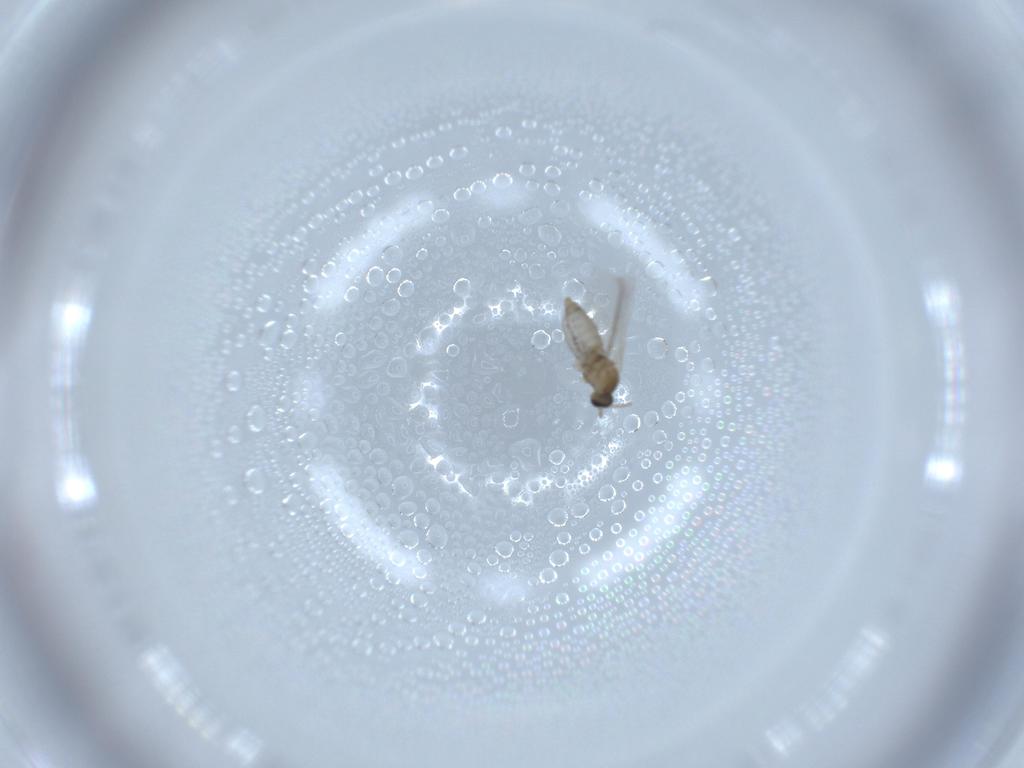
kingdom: Animalia
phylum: Arthropoda
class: Insecta
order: Diptera
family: Cecidomyiidae
